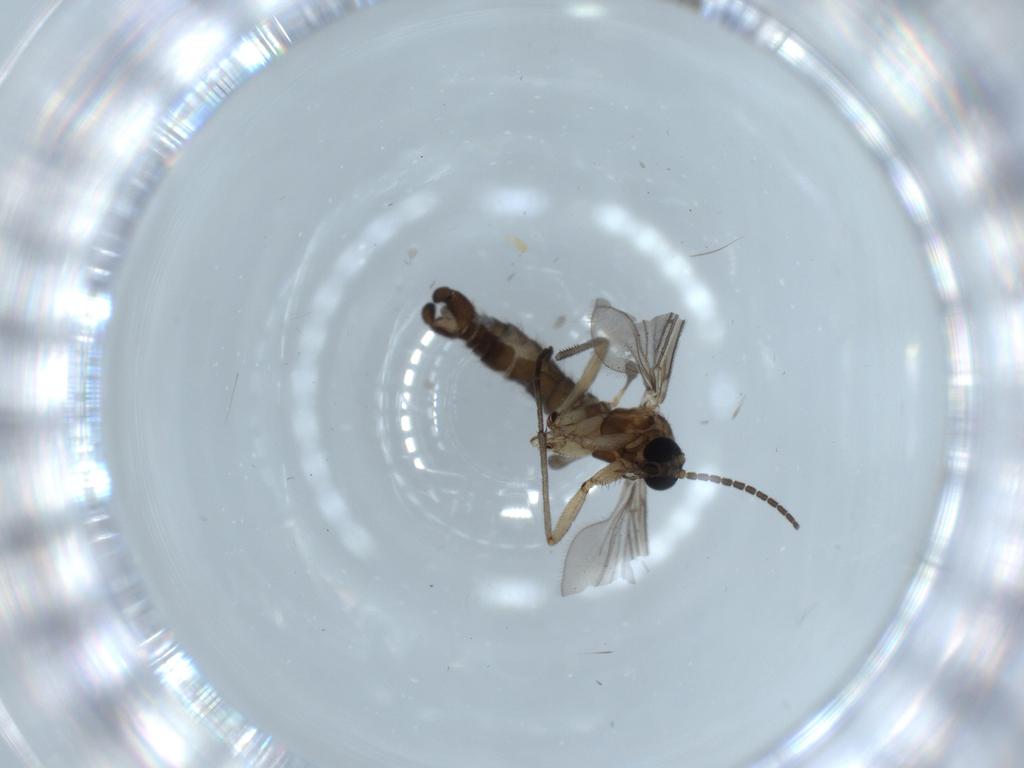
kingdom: Animalia
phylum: Arthropoda
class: Insecta
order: Diptera
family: Sciaridae
